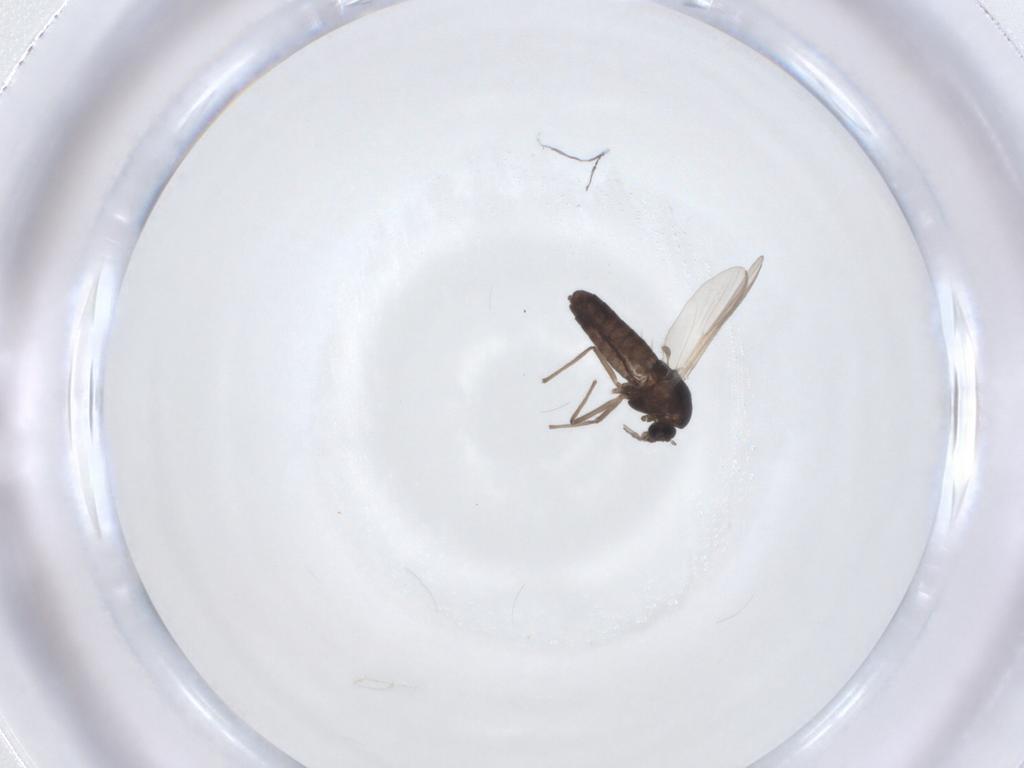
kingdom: Animalia
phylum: Arthropoda
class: Insecta
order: Diptera
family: Chironomidae
